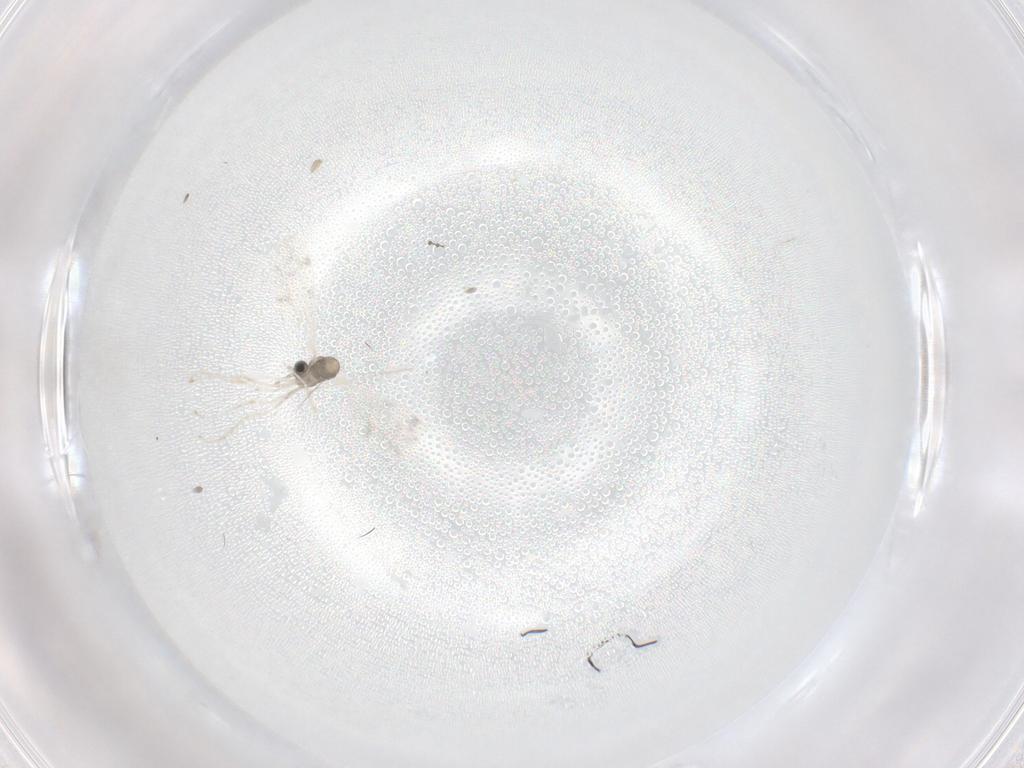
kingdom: Animalia
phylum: Arthropoda
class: Insecta
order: Diptera
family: Cecidomyiidae
